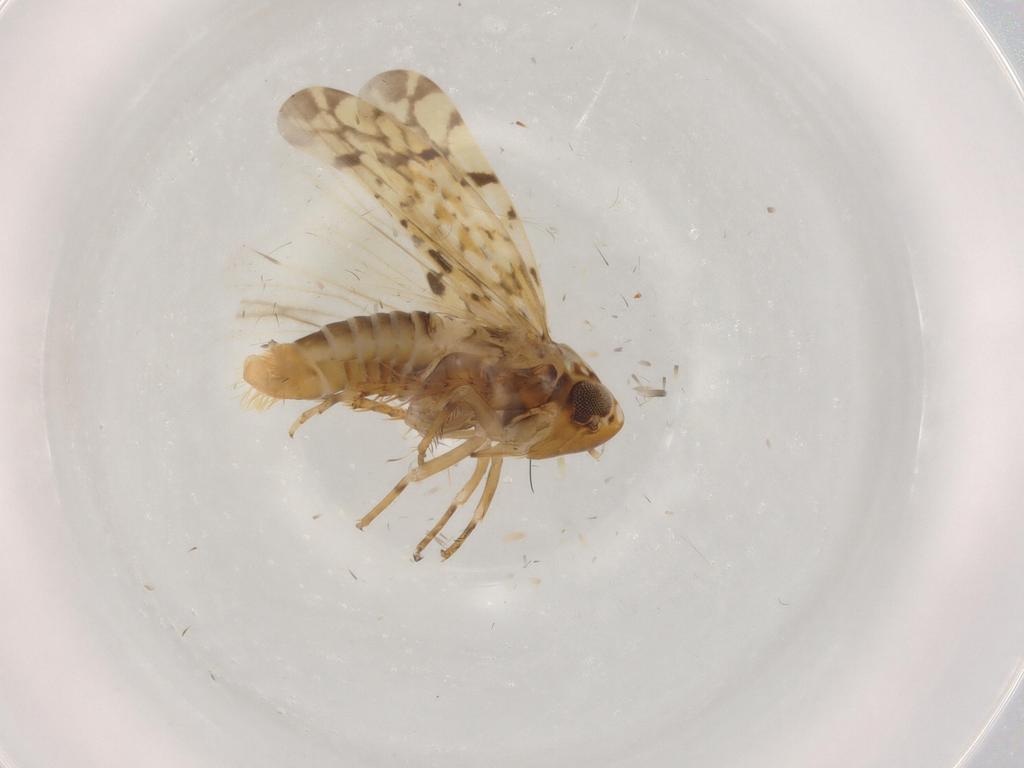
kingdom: Animalia
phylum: Arthropoda
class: Insecta
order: Hemiptera
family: Cicadellidae
